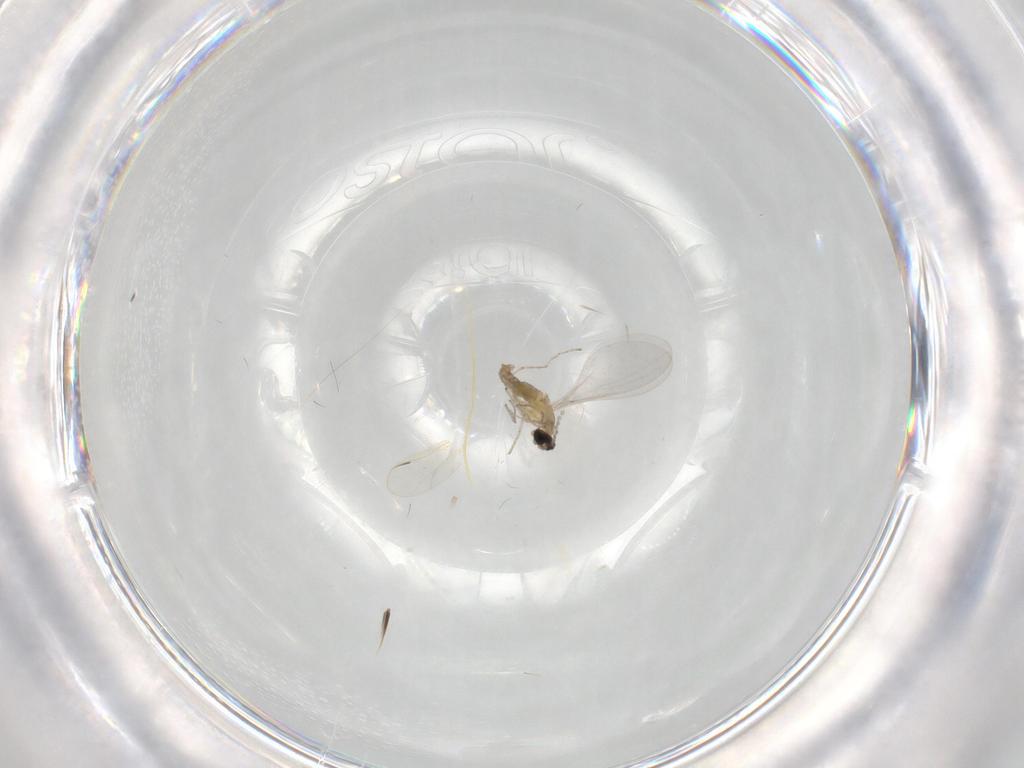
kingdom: Animalia
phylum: Arthropoda
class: Insecta
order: Diptera
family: Cecidomyiidae
